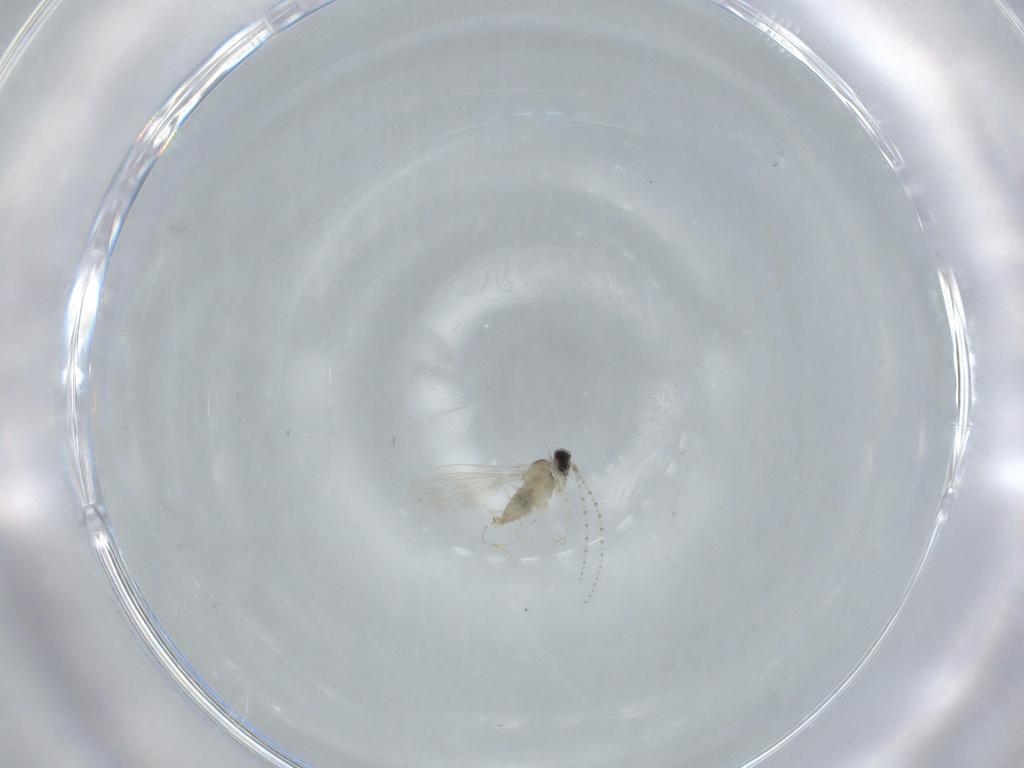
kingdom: Animalia
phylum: Arthropoda
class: Insecta
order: Diptera
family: Cecidomyiidae
